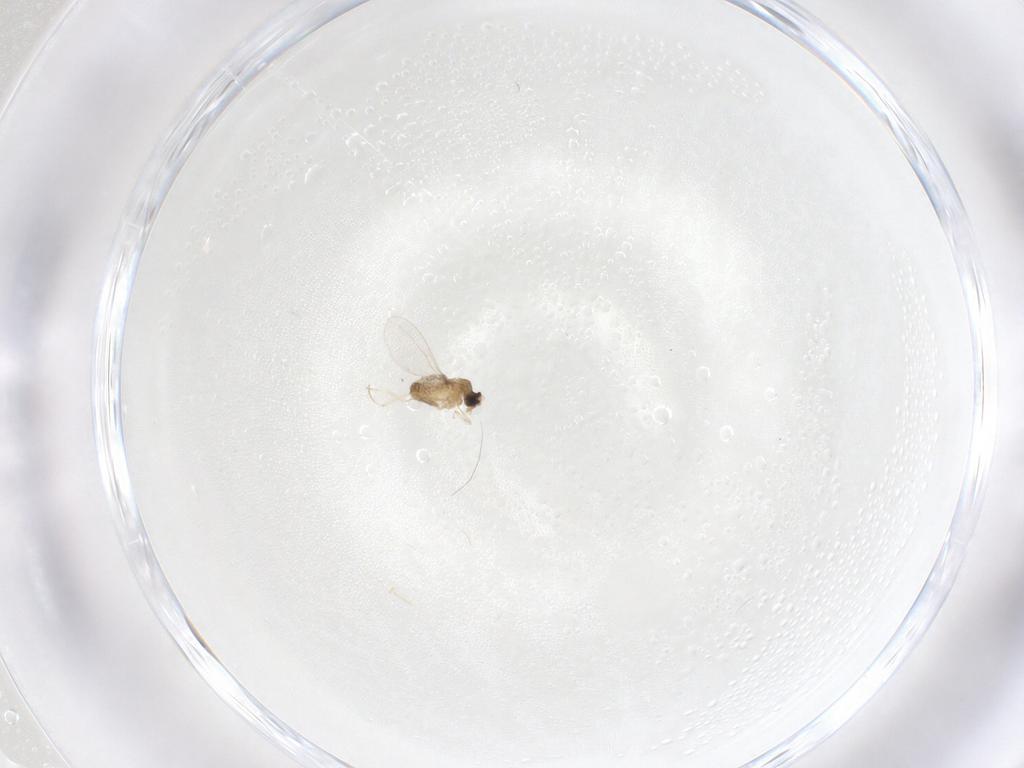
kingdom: Animalia
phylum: Arthropoda
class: Insecta
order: Diptera
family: Cecidomyiidae
